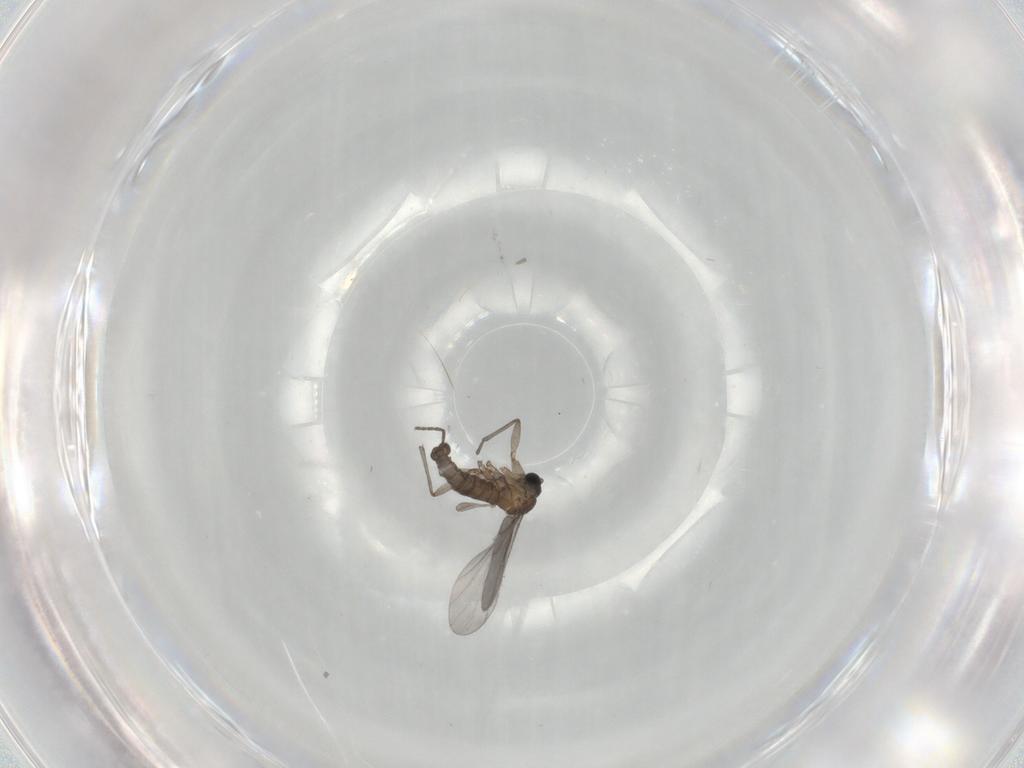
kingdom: Animalia
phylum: Arthropoda
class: Insecta
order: Diptera
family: Sciaridae
